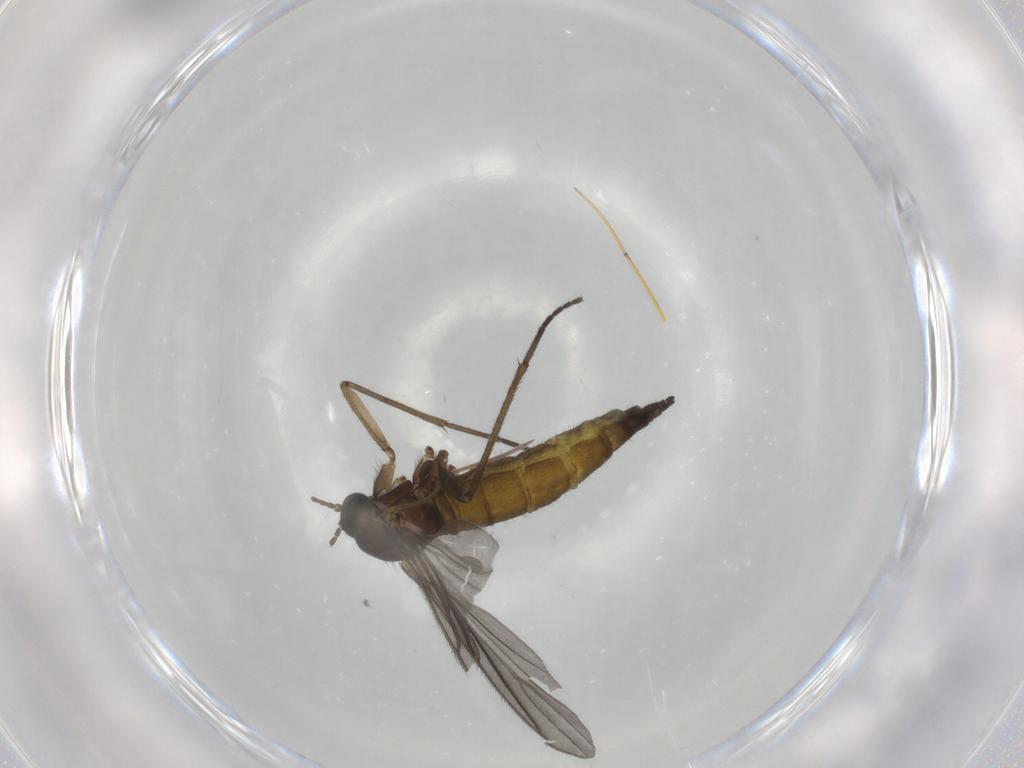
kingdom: Animalia
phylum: Arthropoda
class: Insecta
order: Diptera
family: Sciaridae
